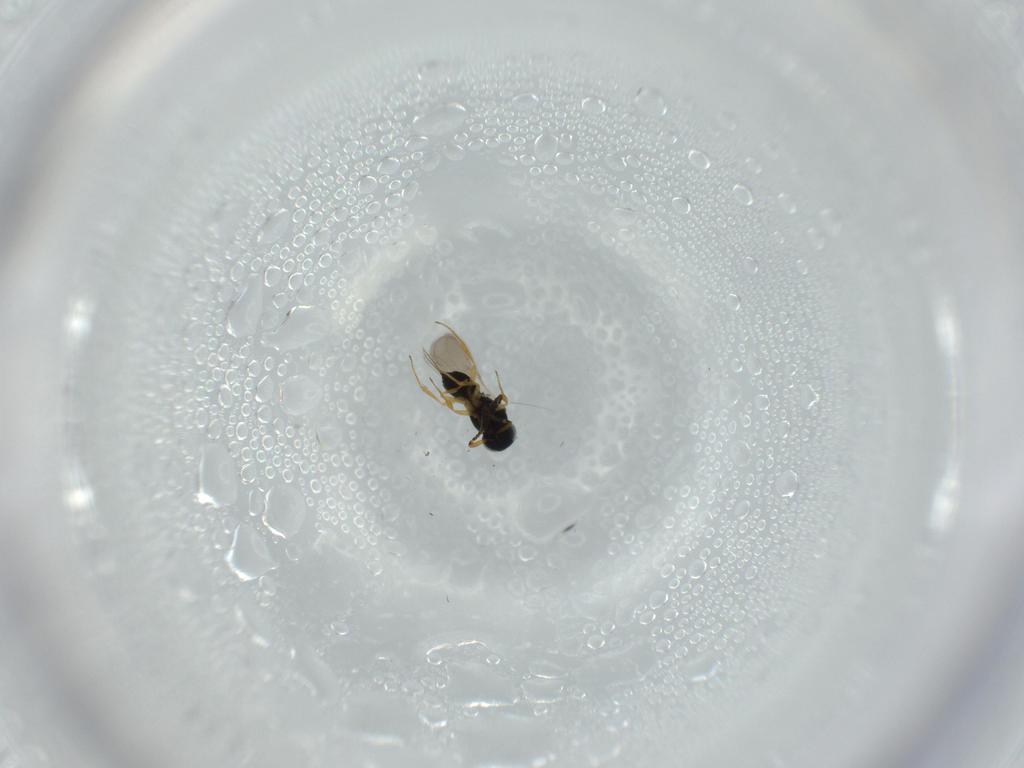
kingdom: Animalia
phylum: Arthropoda
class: Insecta
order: Hymenoptera
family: Scelionidae
